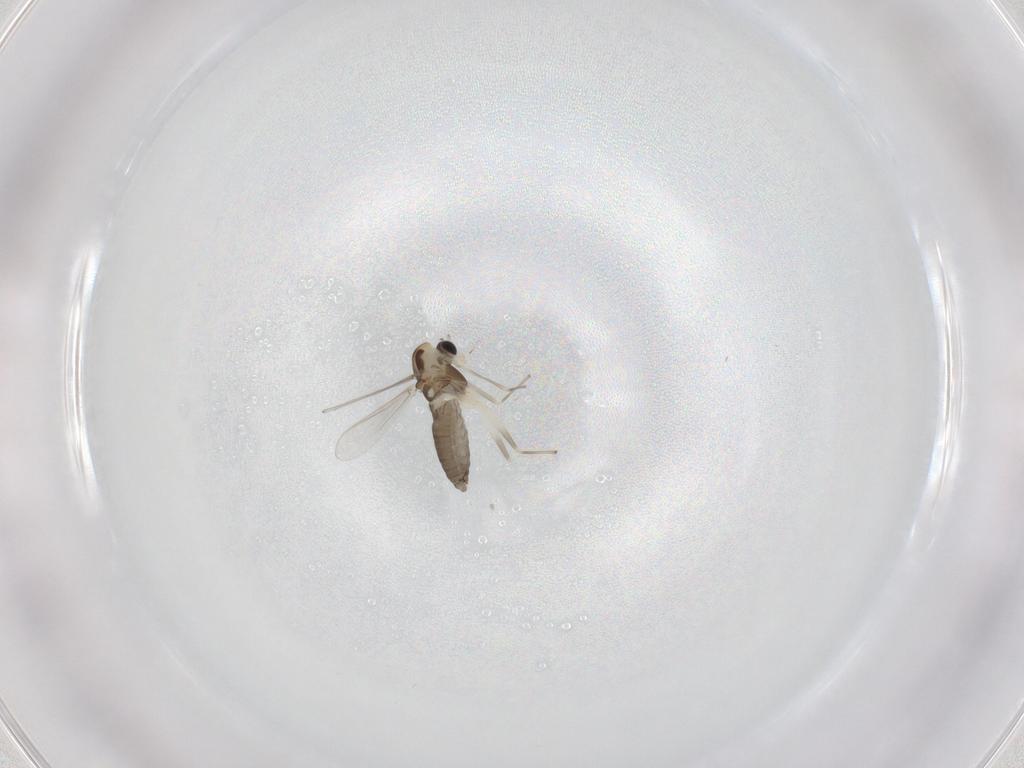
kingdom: Animalia
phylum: Arthropoda
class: Insecta
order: Diptera
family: Chironomidae
